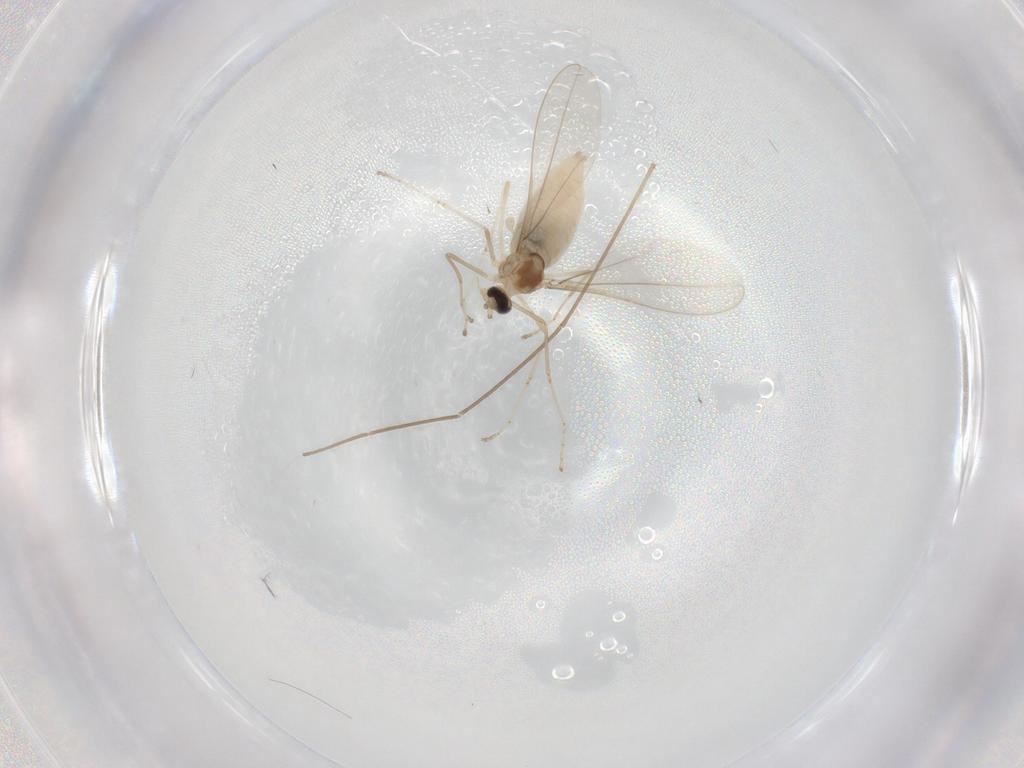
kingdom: Animalia
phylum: Arthropoda
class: Insecta
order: Diptera
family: Cecidomyiidae
